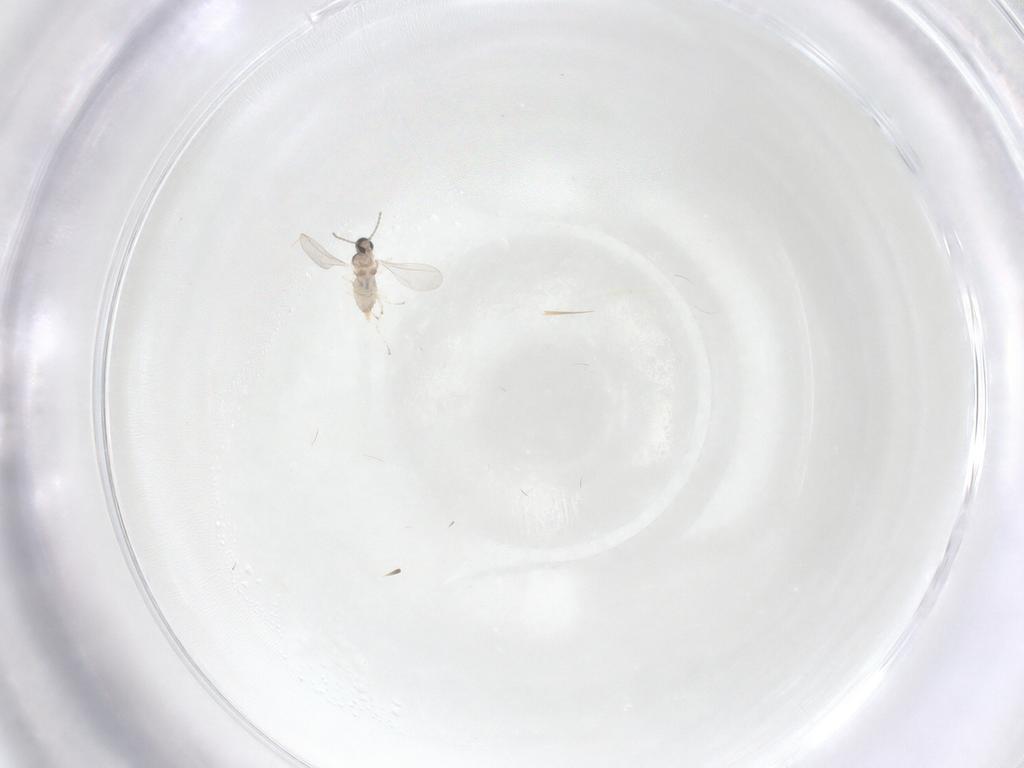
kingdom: Animalia
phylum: Arthropoda
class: Insecta
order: Diptera
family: Cecidomyiidae
